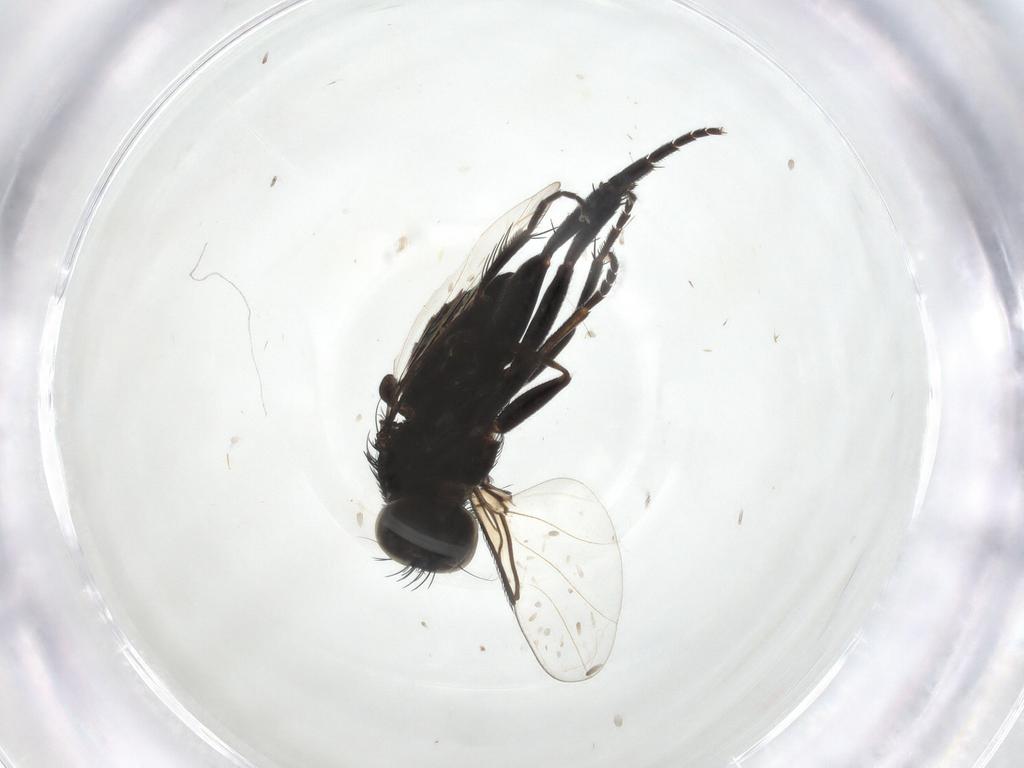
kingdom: Animalia
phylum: Arthropoda
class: Insecta
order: Diptera
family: Phoridae
